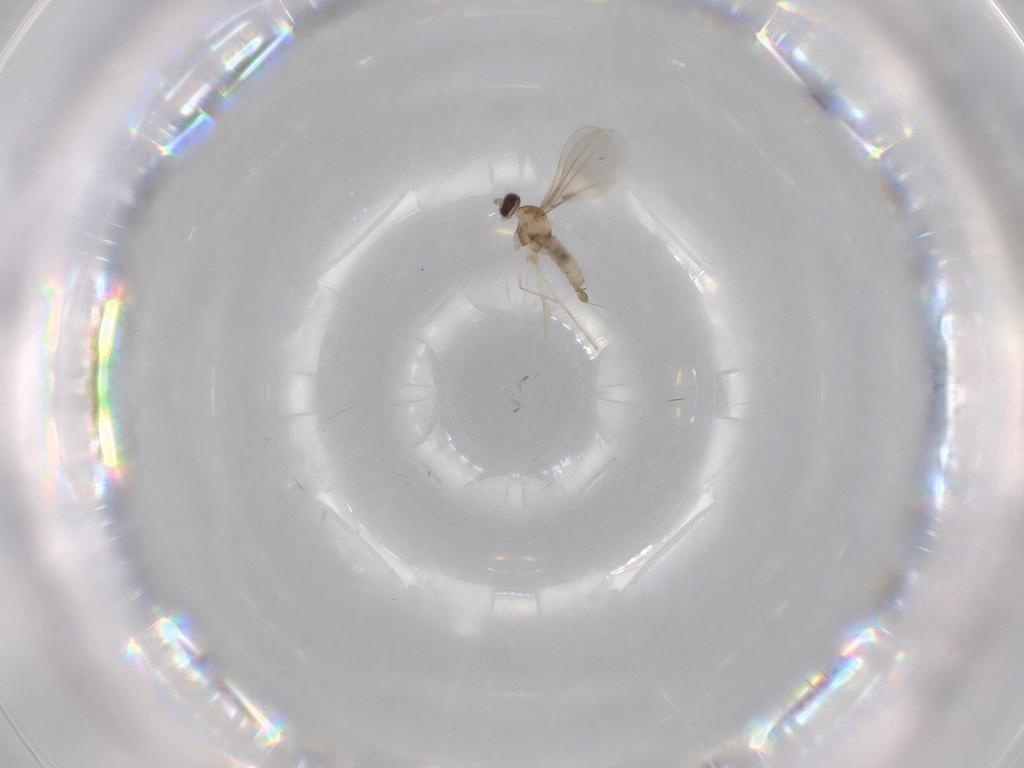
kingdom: Animalia
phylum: Arthropoda
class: Insecta
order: Diptera
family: Cecidomyiidae
